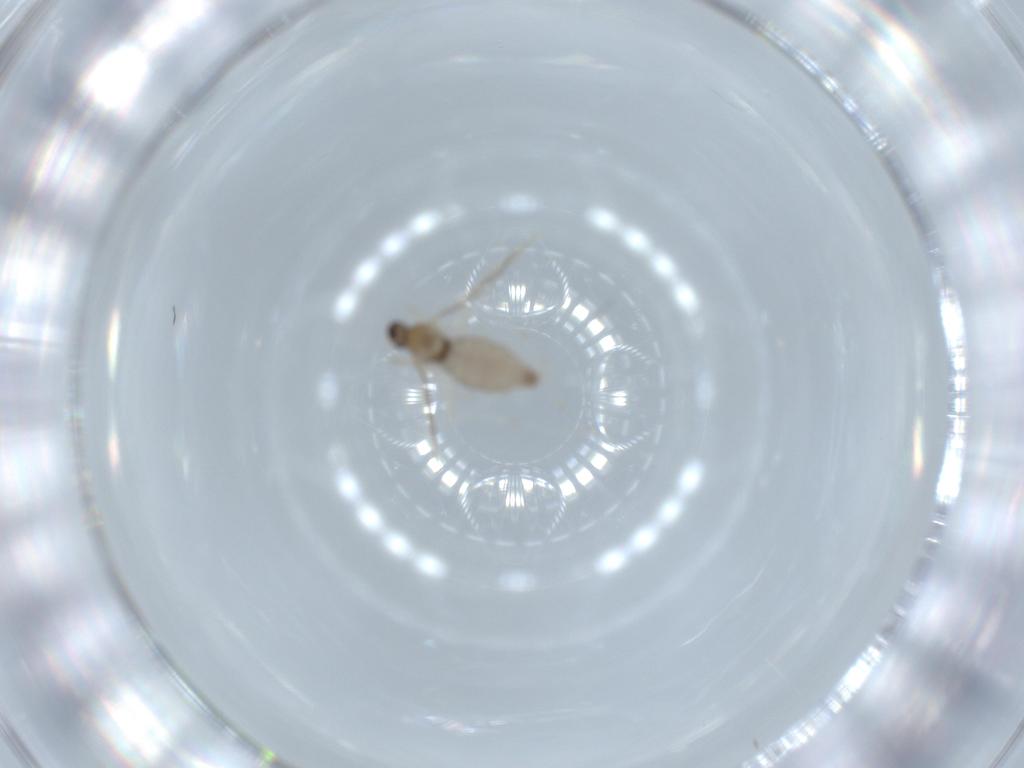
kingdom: Animalia
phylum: Arthropoda
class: Insecta
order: Diptera
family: Cecidomyiidae
